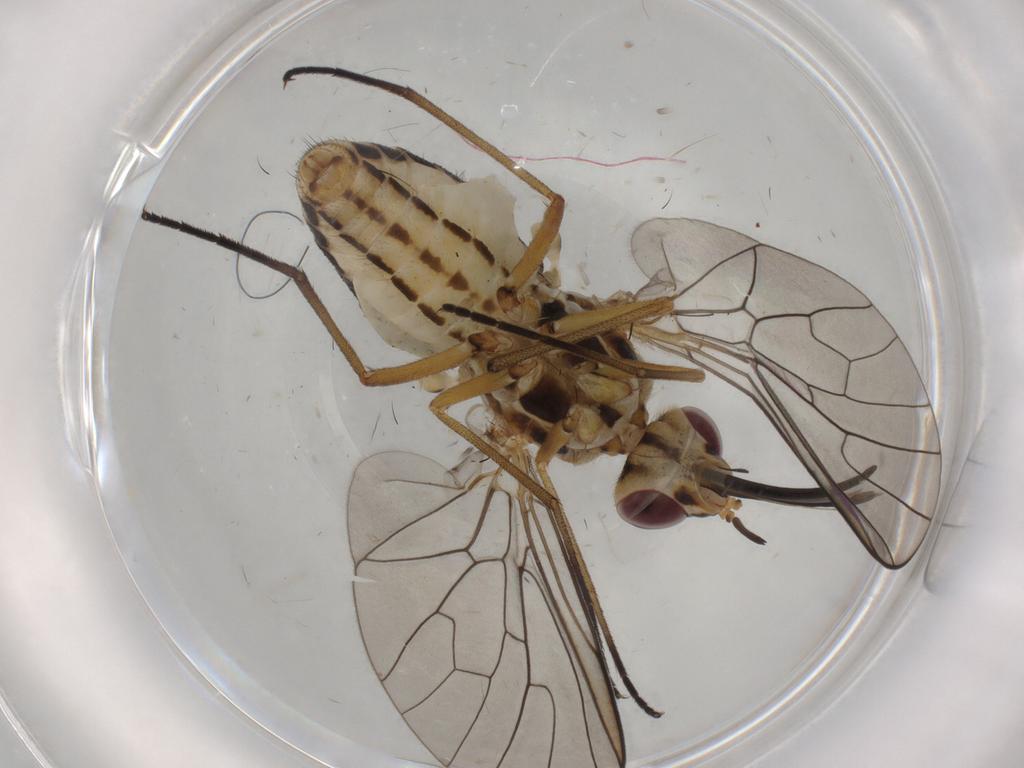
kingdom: Animalia
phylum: Arthropoda
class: Insecta
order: Diptera
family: Bombyliidae
